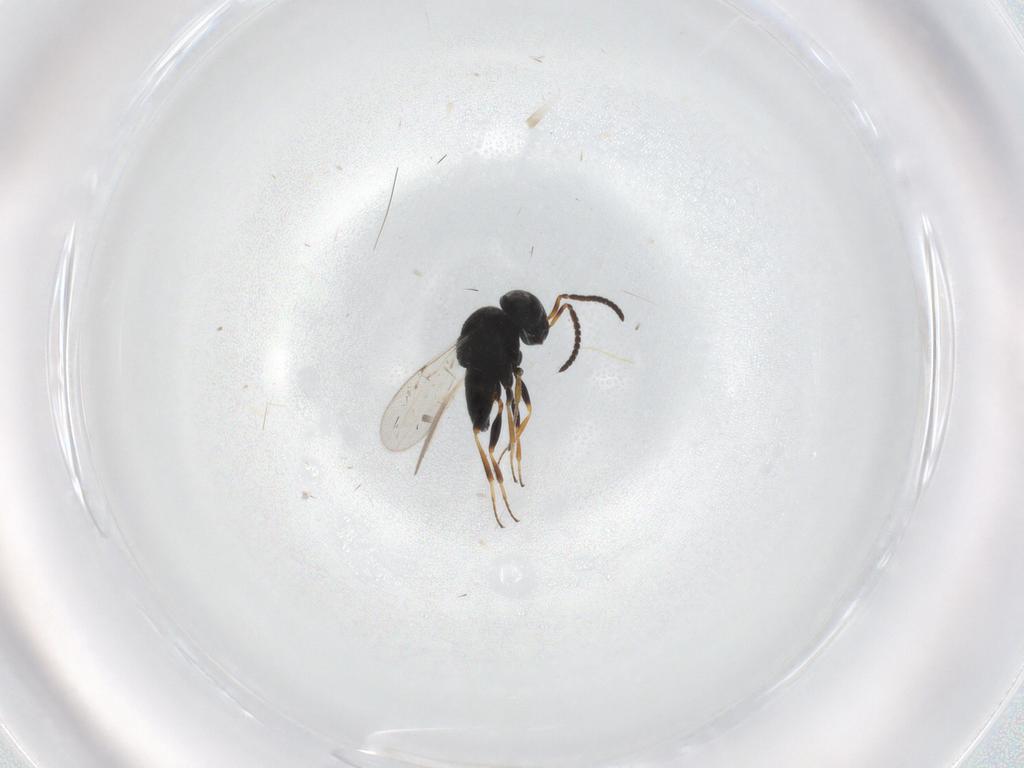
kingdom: Animalia
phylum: Arthropoda
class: Insecta
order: Coleoptera
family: Curculionidae
